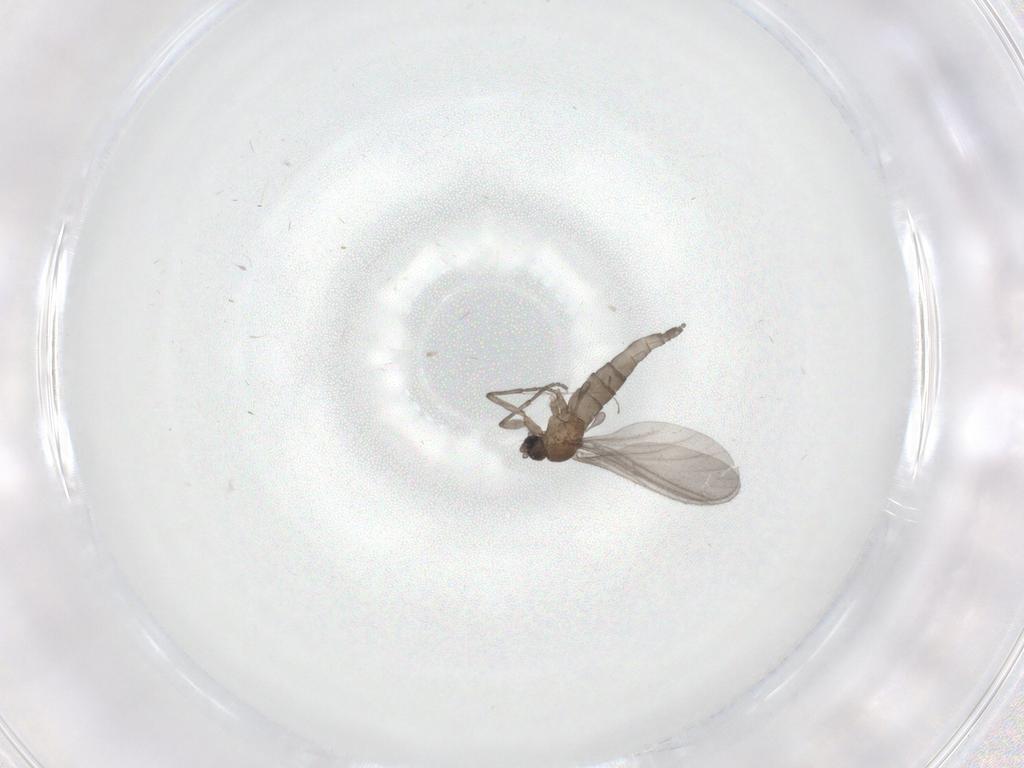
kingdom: Animalia
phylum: Arthropoda
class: Insecta
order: Diptera
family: Sciaridae
